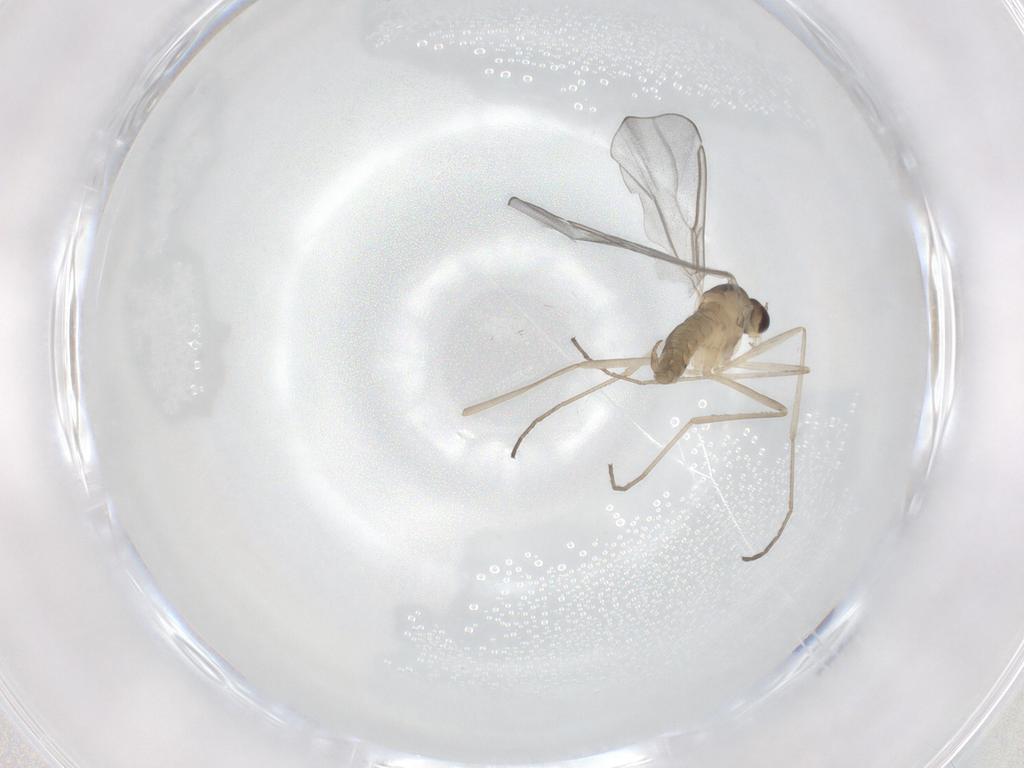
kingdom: Animalia
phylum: Arthropoda
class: Insecta
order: Diptera
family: Cecidomyiidae
